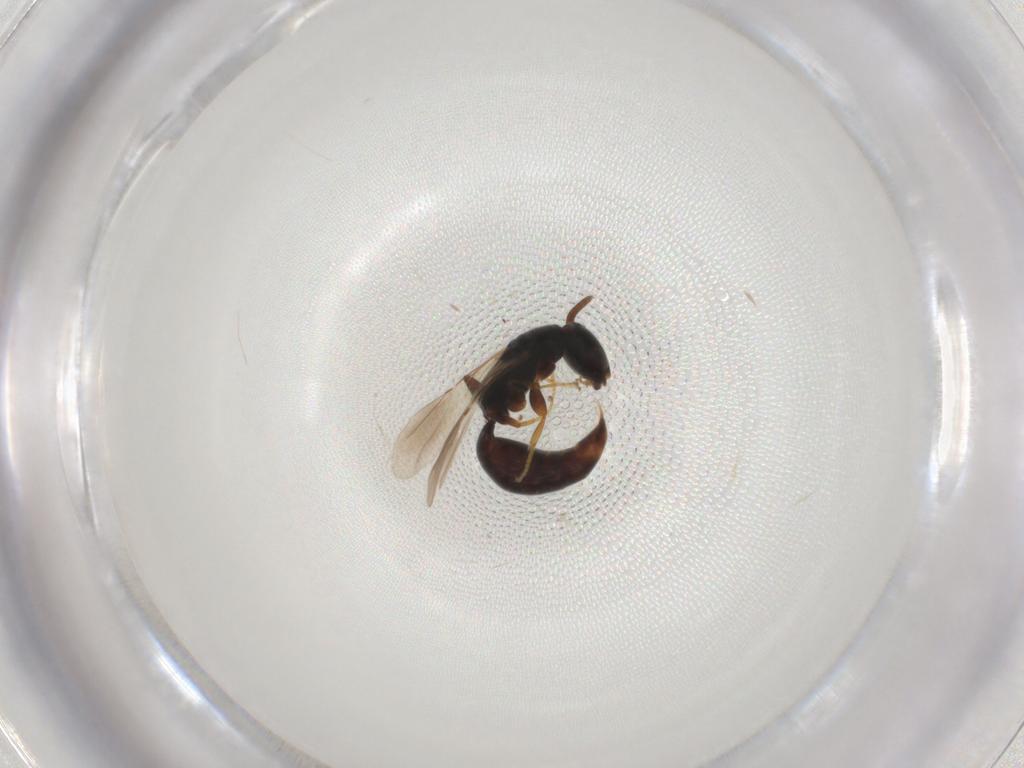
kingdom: Animalia
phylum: Arthropoda
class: Insecta
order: Hymenoptera
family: Bethylidae
